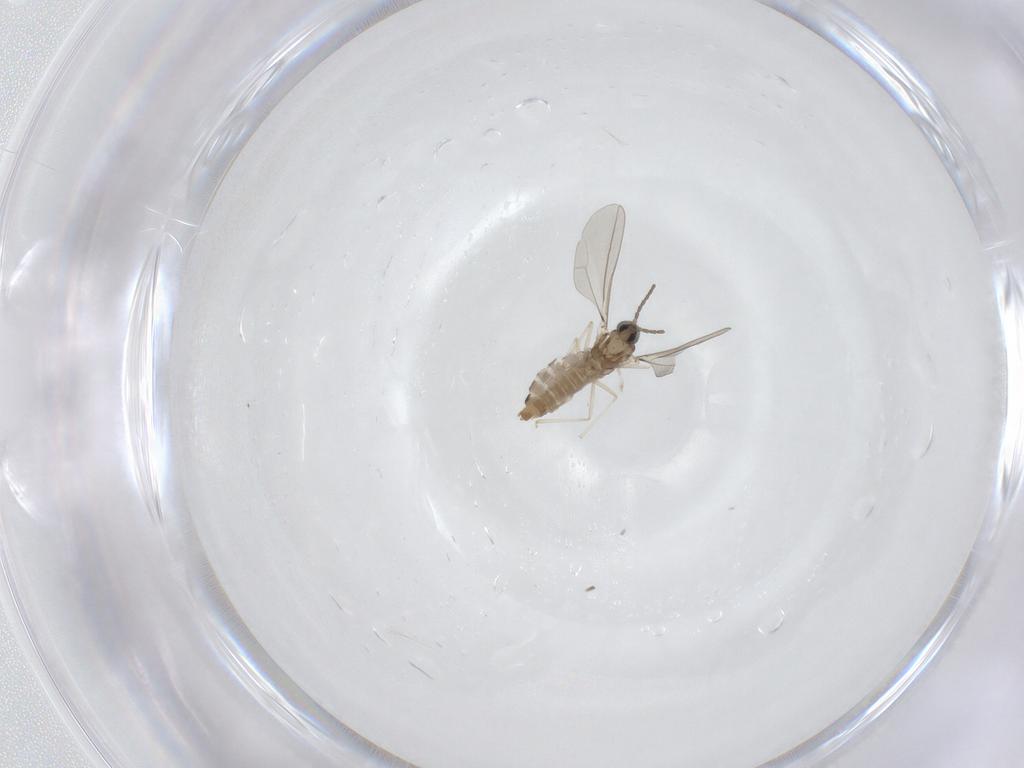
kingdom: Animalia
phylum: Arthropoda
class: Insecta
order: Diptera
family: Cecidomyiidae
